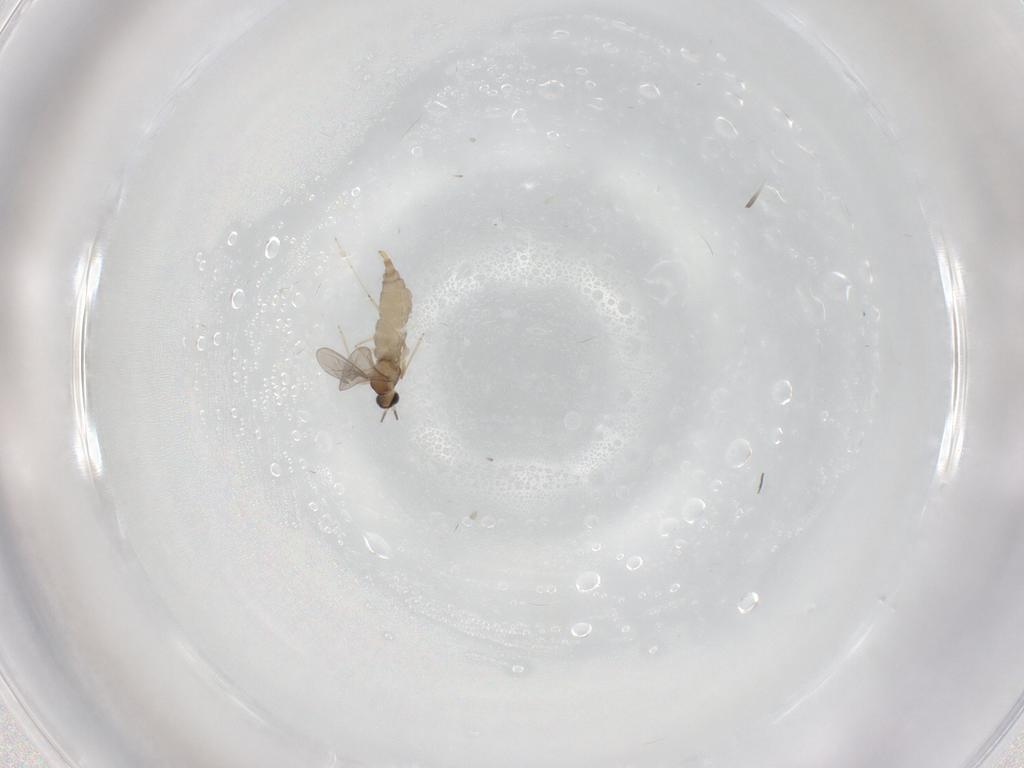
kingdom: Animalia
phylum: Arthropoda
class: Insecta
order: Diptera
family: Cecidomyiidae
